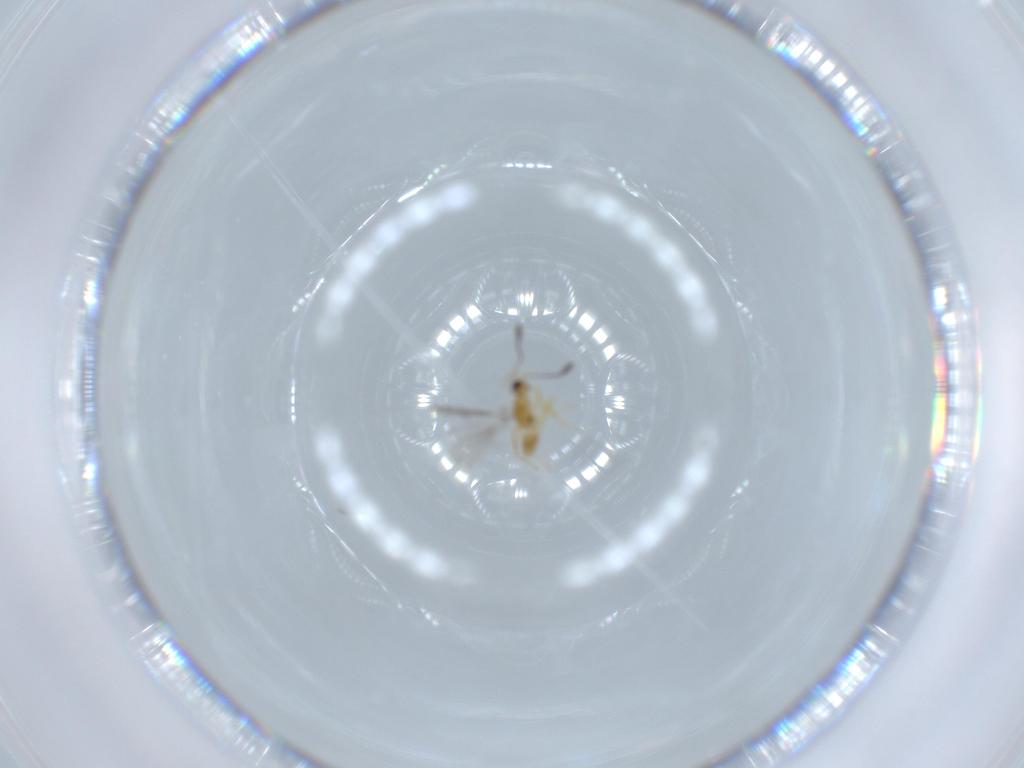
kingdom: Animalia
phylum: Arthropoda
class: Insecta
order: Hymenoptera
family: Mymaridae
